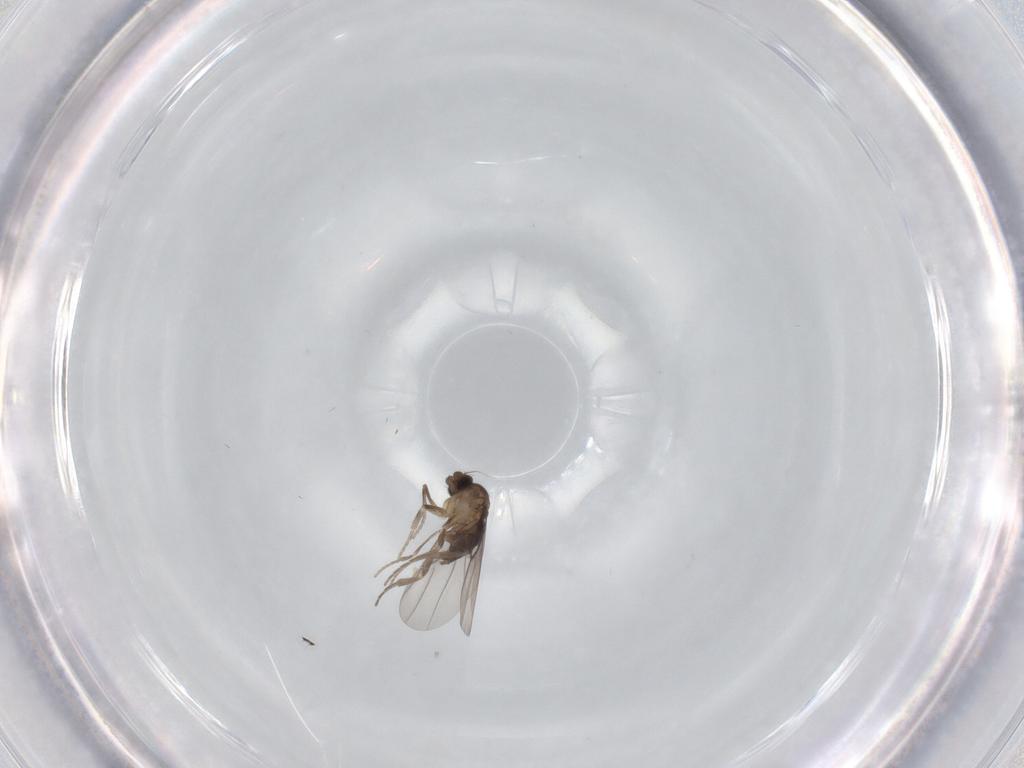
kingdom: Animalia
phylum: Arthropoda
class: Insecta
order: Diptera
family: Phoridae
